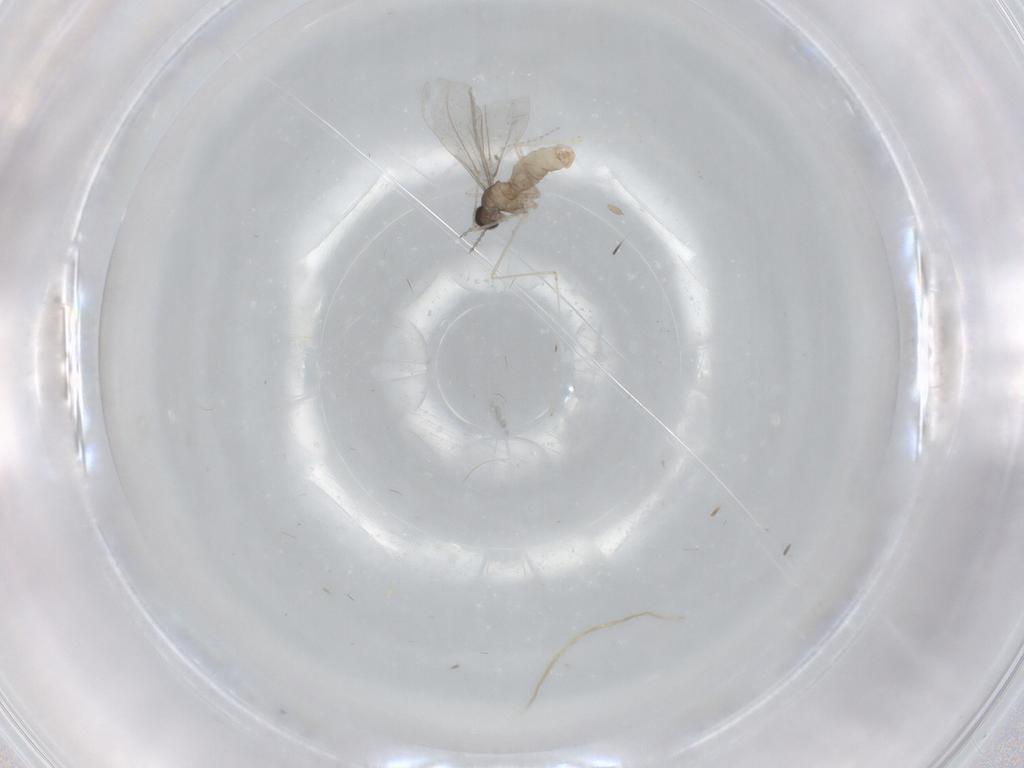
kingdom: Animalia
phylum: Arthropoda
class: Insecta
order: Diptera
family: Cecidomyiidae
